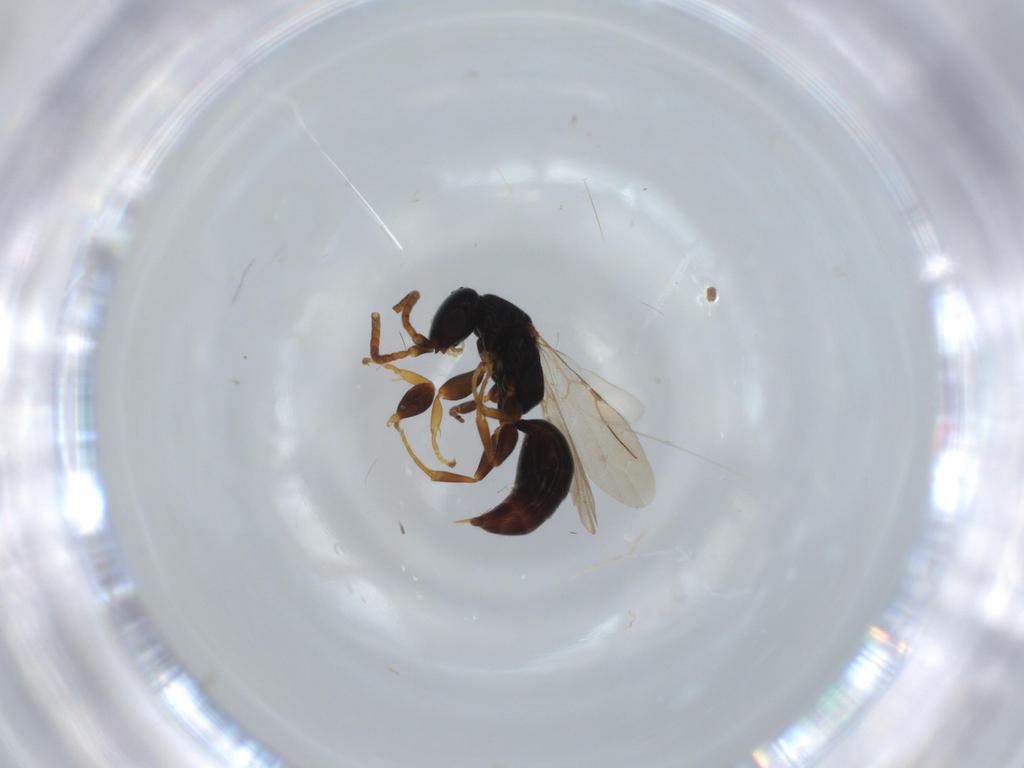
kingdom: Animalia
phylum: Arthropoda
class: Insecta
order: Hymenoptera
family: Bethylidae
